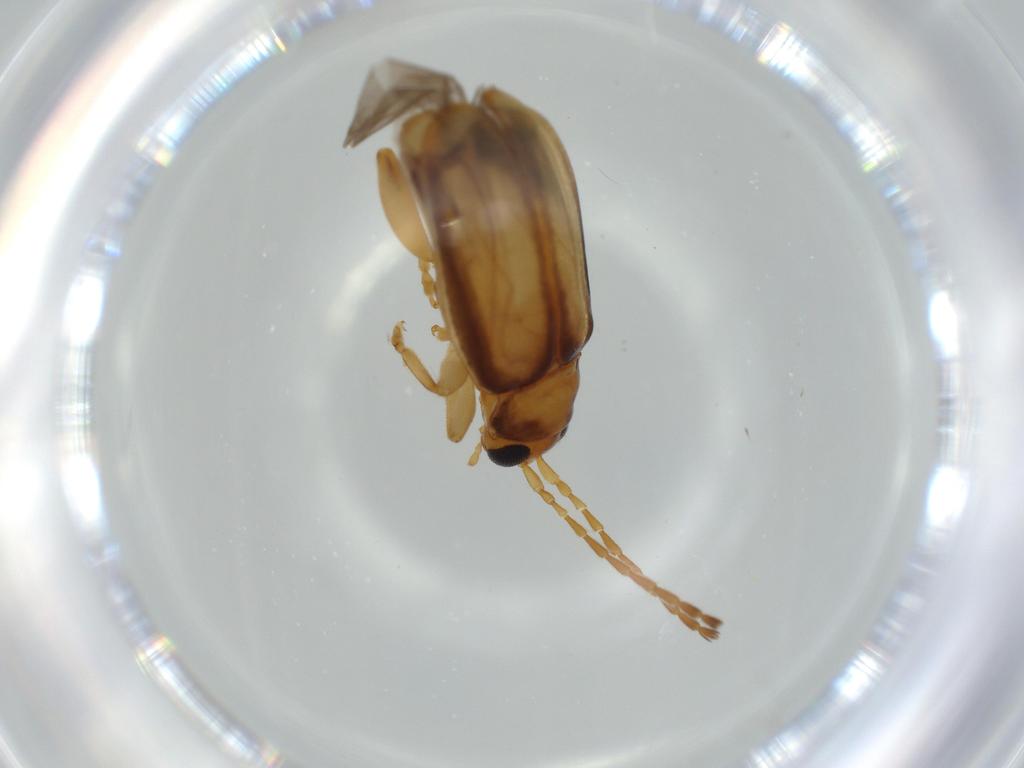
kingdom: Animalia
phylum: Arthropoda
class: Insecta
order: Coleoptera
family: Chrysomelidae
